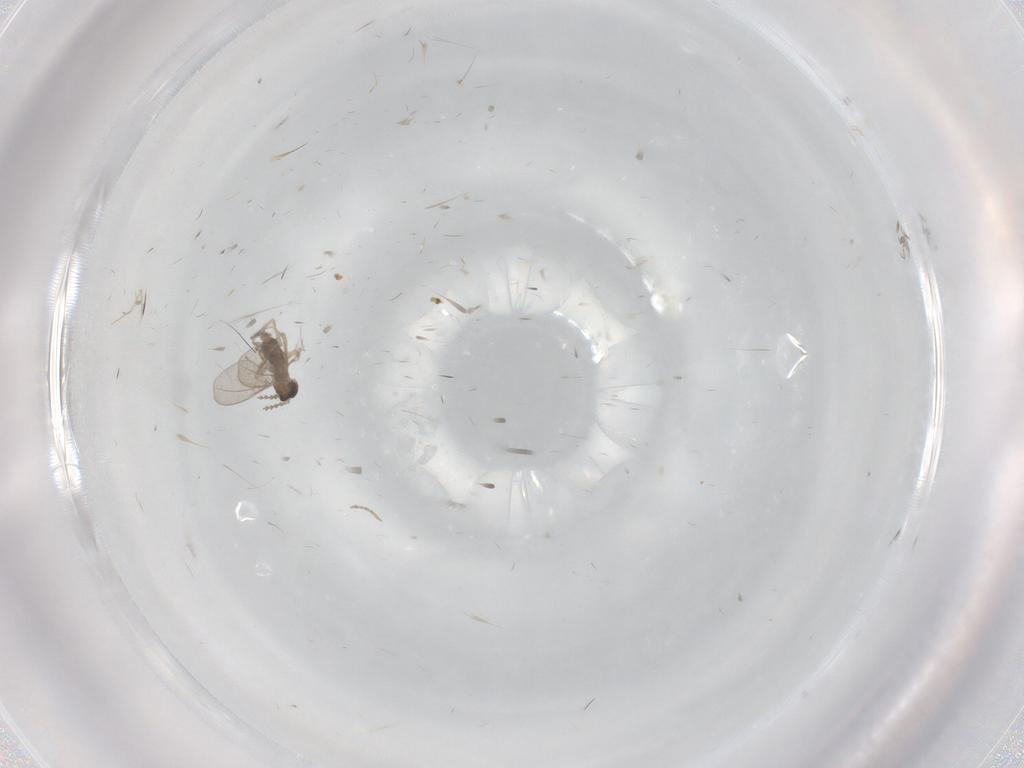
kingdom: Animalia
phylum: Arthropoda
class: Insecta
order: Diptera
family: Cecidomyiidae
